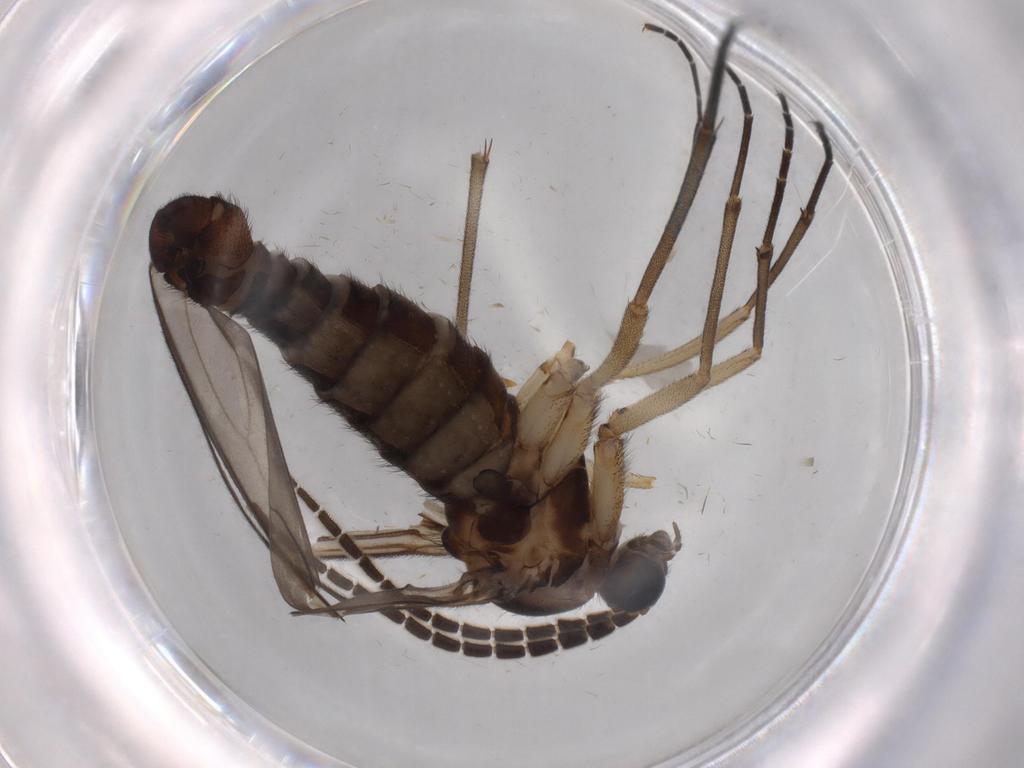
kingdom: Animalia
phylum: Arthropoda
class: Insecta
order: Diptera
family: Sciaridae
